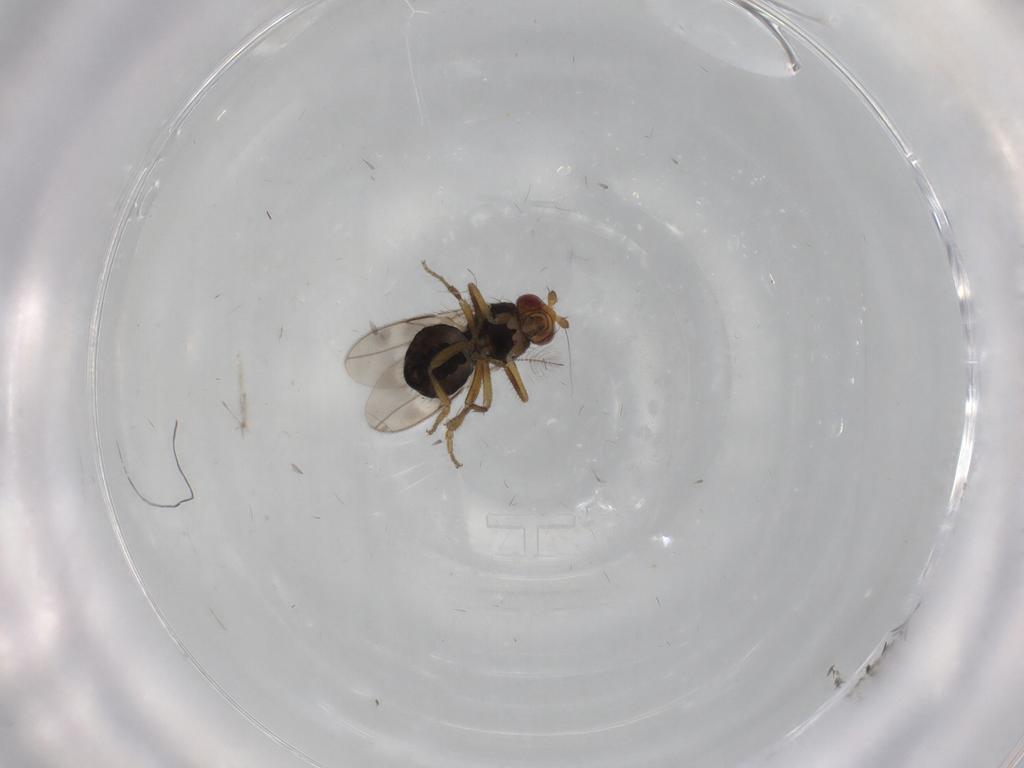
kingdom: Animalia
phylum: Arthropoda
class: Insecta
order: Diptera
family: Sphaeroceridae
